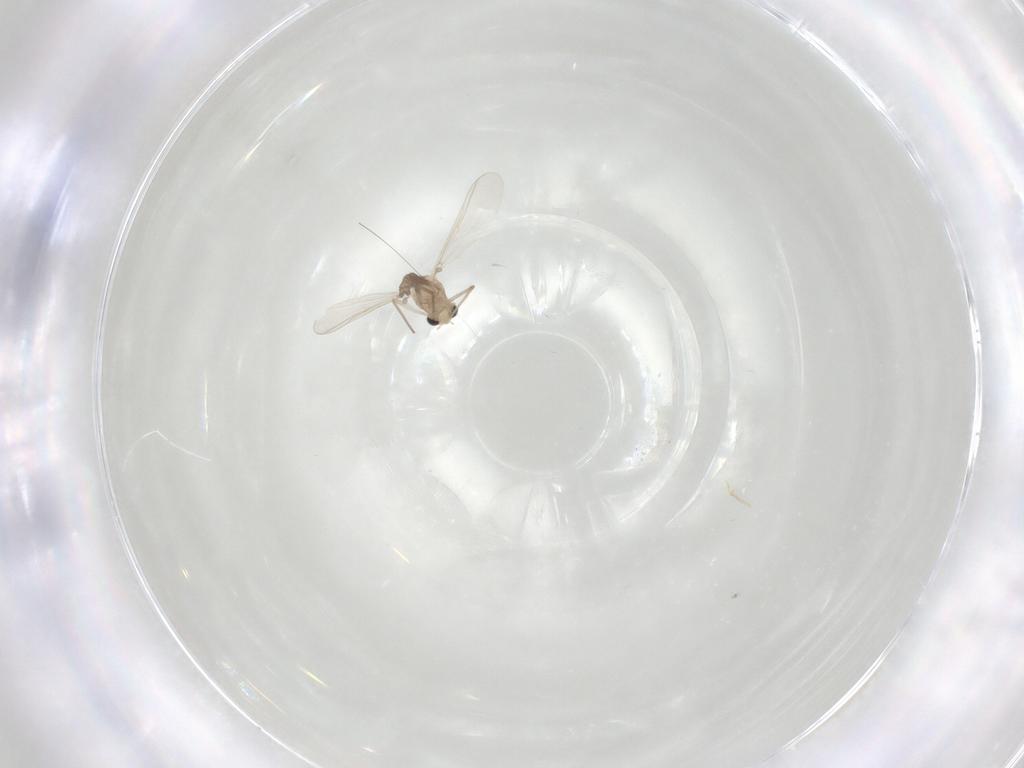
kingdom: Animalia
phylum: Arthropoda
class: Insecta
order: Diptera
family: Chironomidae
